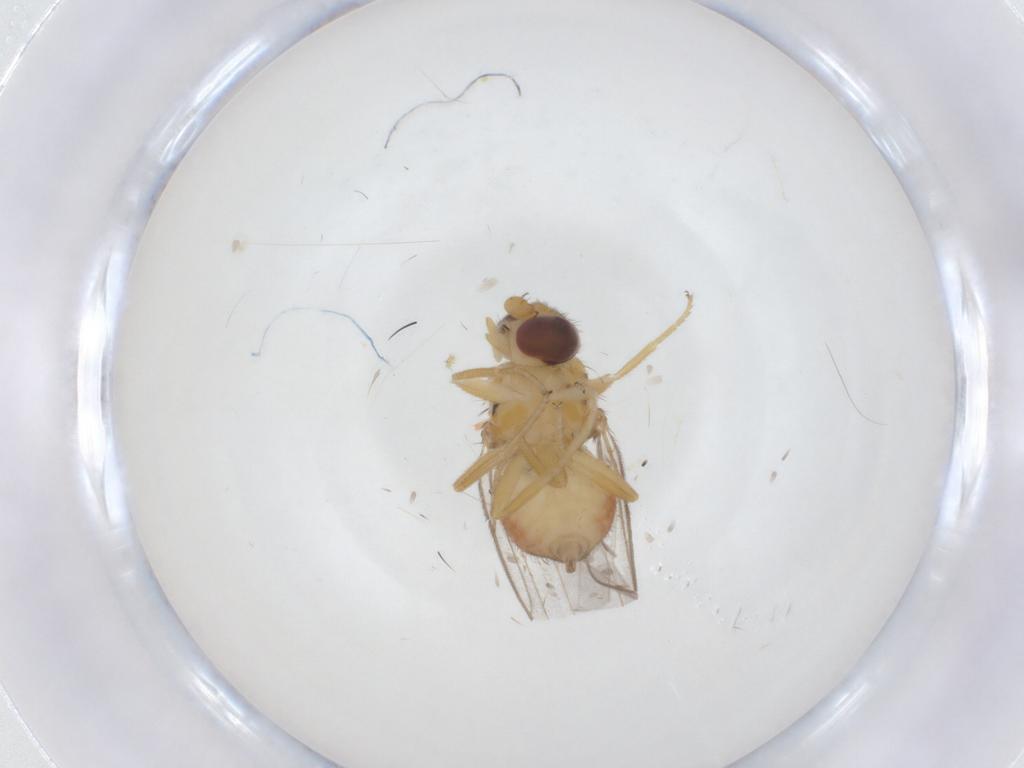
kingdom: Animalia
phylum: Arthropoda
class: Insecta
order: Diptera
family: Chloropidae
